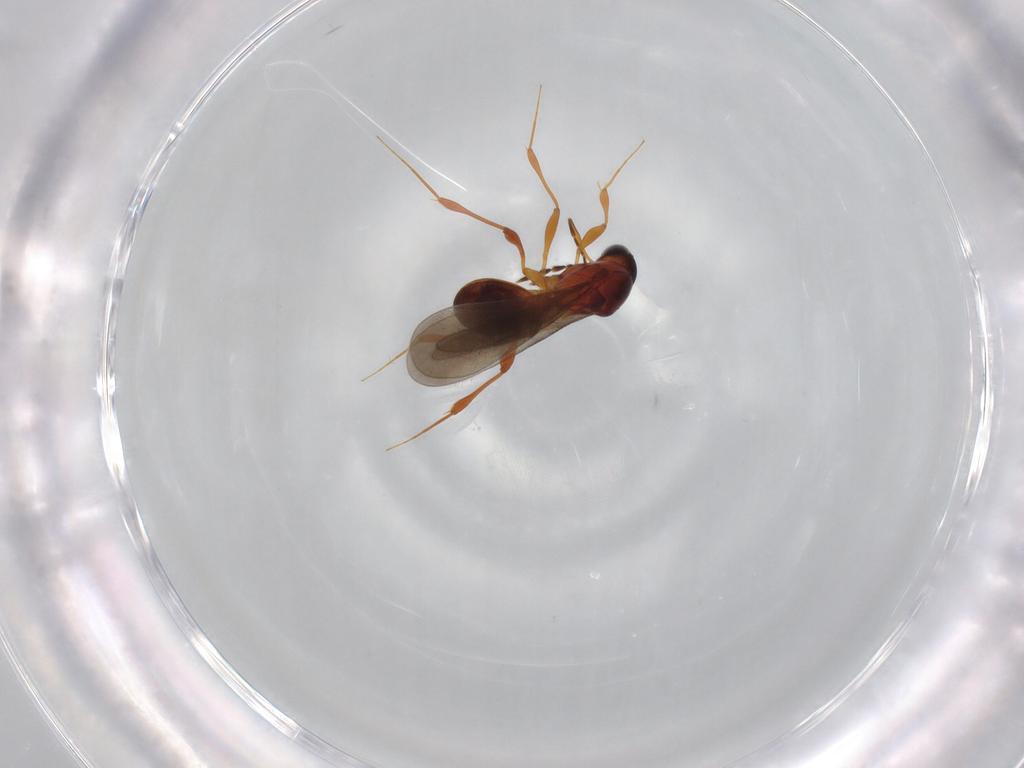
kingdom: Animalia
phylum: Arthropoda
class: Insecta
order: Hymenoptera
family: Platygastridae
